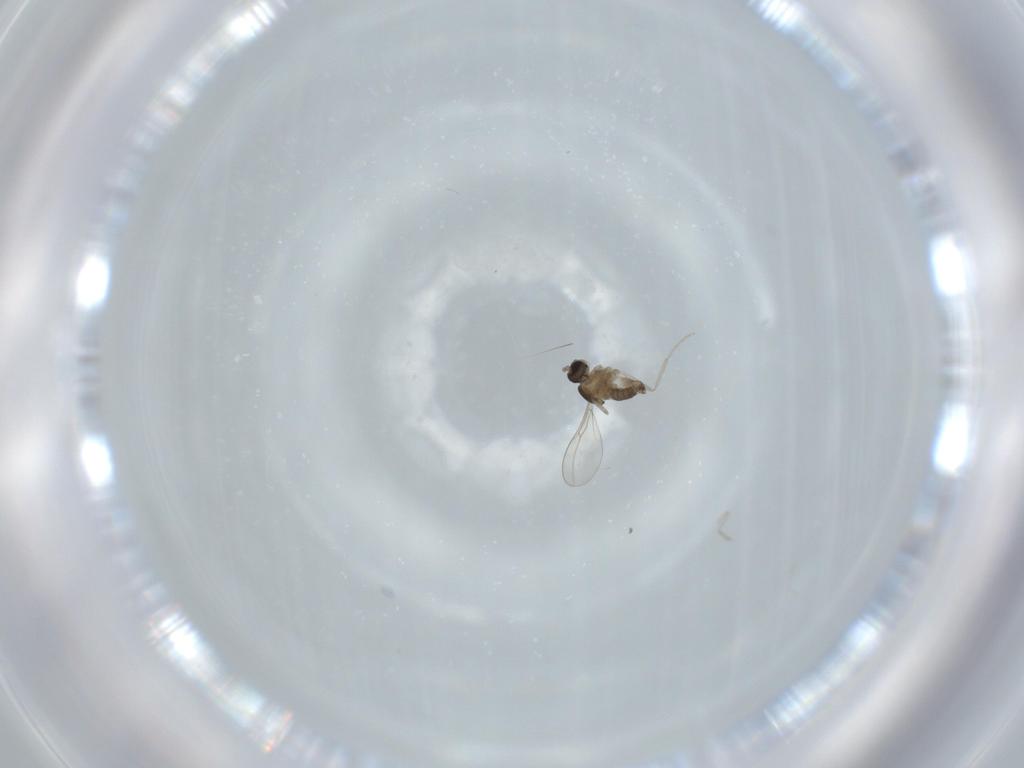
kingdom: Animalia
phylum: Arthropoda
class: Insecta
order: Diptera
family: Cecidomyiidae
